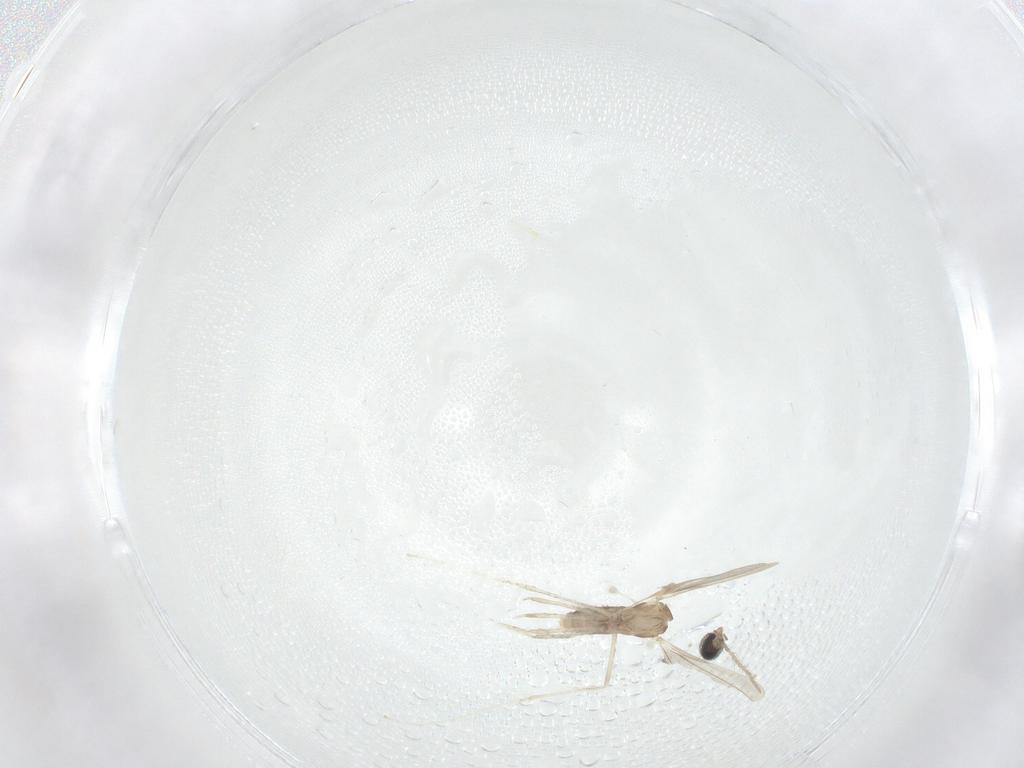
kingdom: Animalia
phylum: Arthropoda
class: Insecta
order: Diptera
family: Cecidomyiidae
